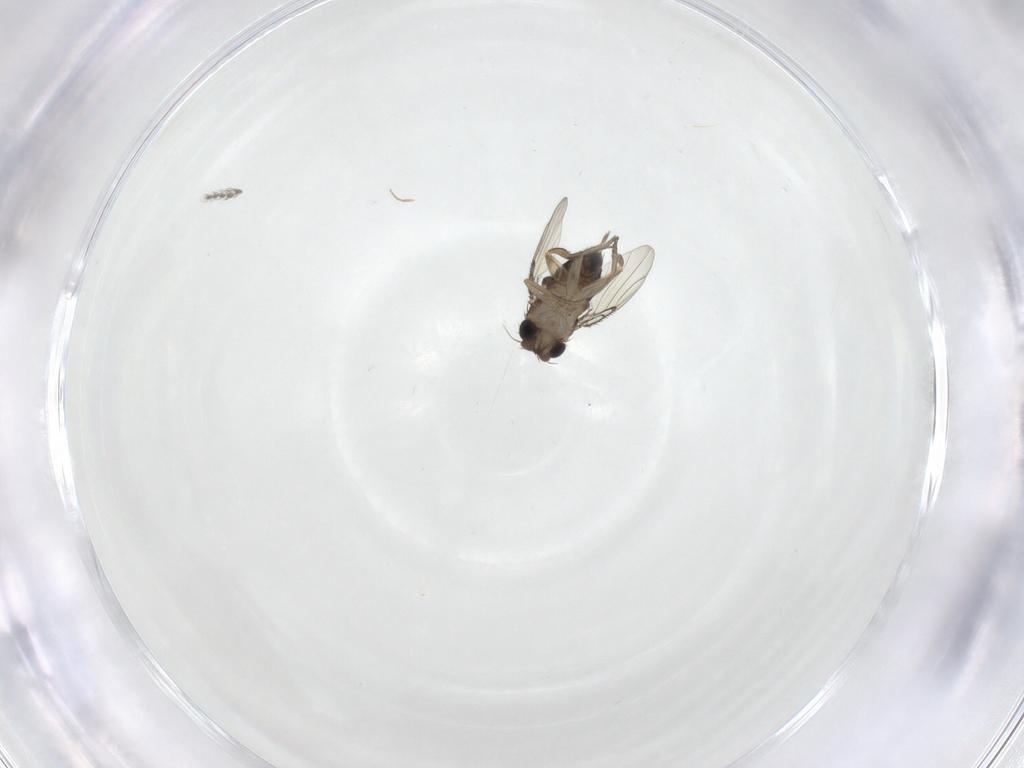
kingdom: Animalia
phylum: Arthropoda
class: Insecta
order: Diptera
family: Chironomidae
